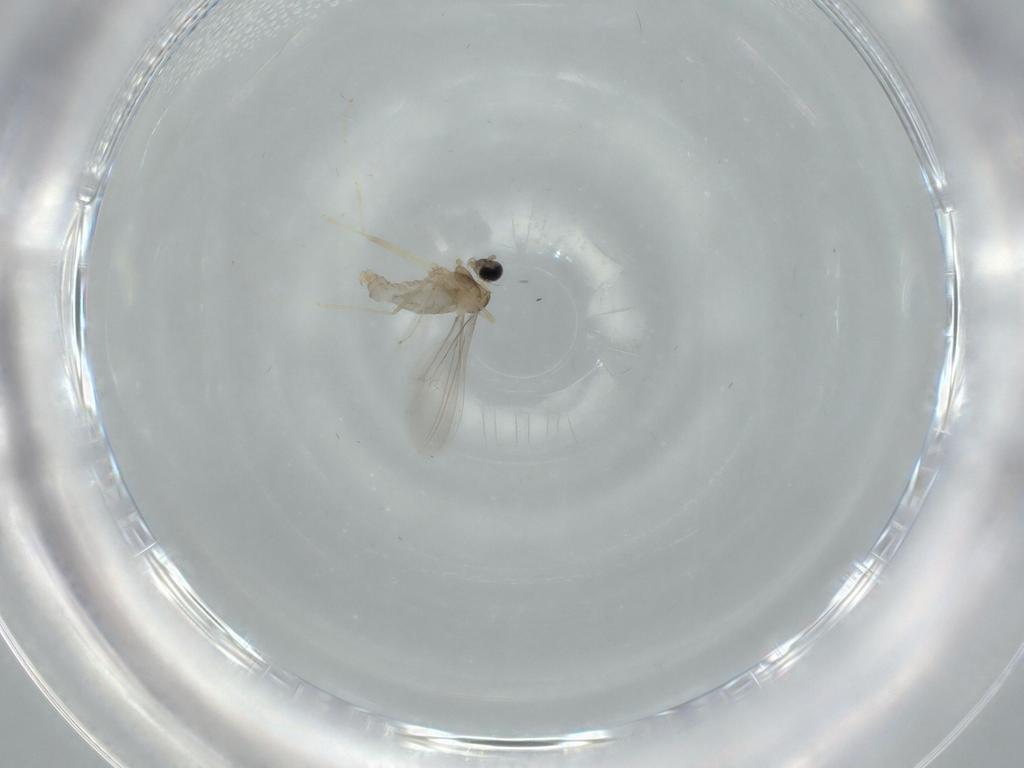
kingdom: Animalia
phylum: Arthropoda
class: Insecta
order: Diptera
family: Cecidomyiidae
